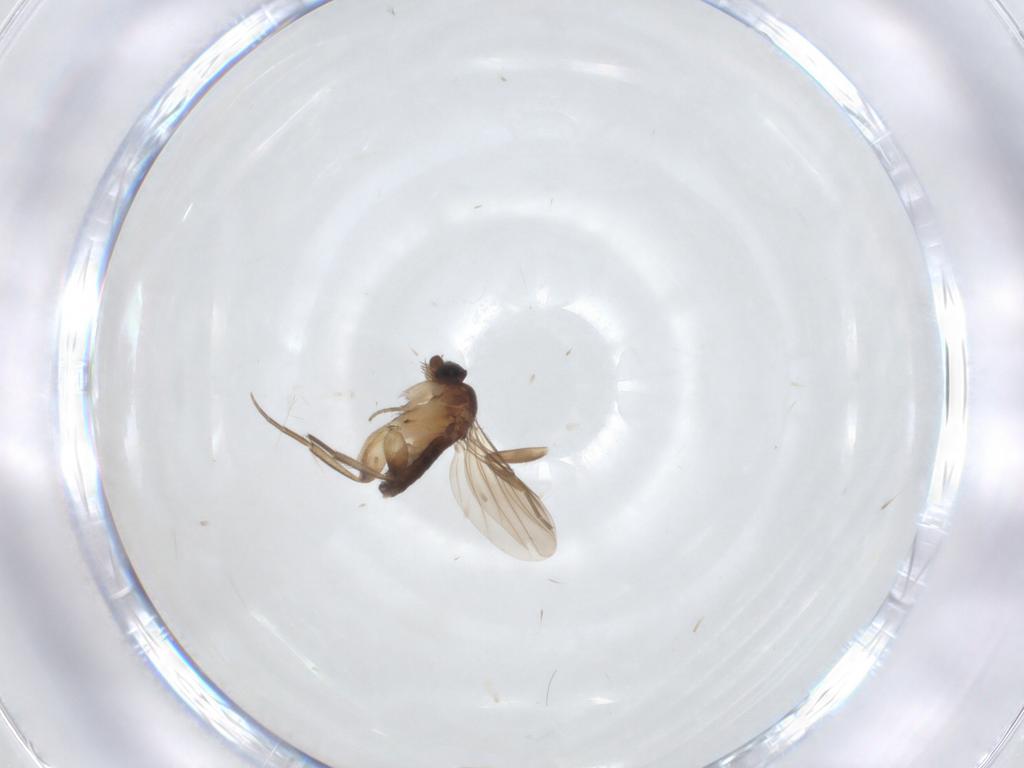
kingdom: Animalia
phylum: Arthropoda
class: Insecta
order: Diptera
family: Phoridae
